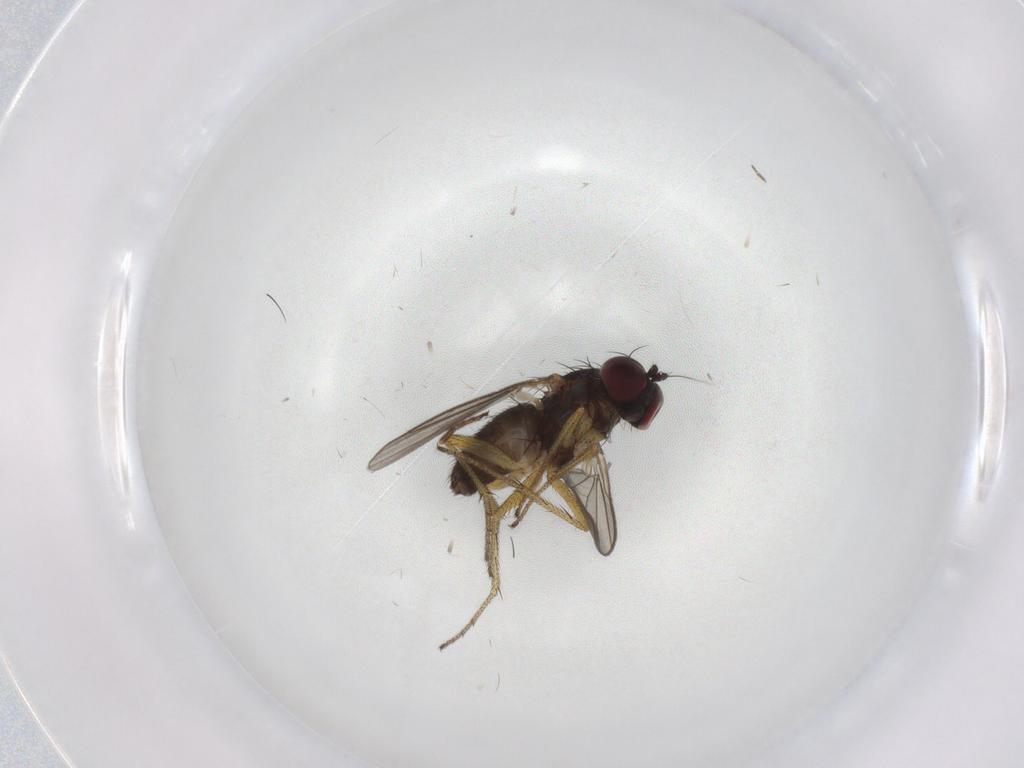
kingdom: Animalia
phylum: Arthropoda
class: Insecta
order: Diptera
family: Dolichopodidae
